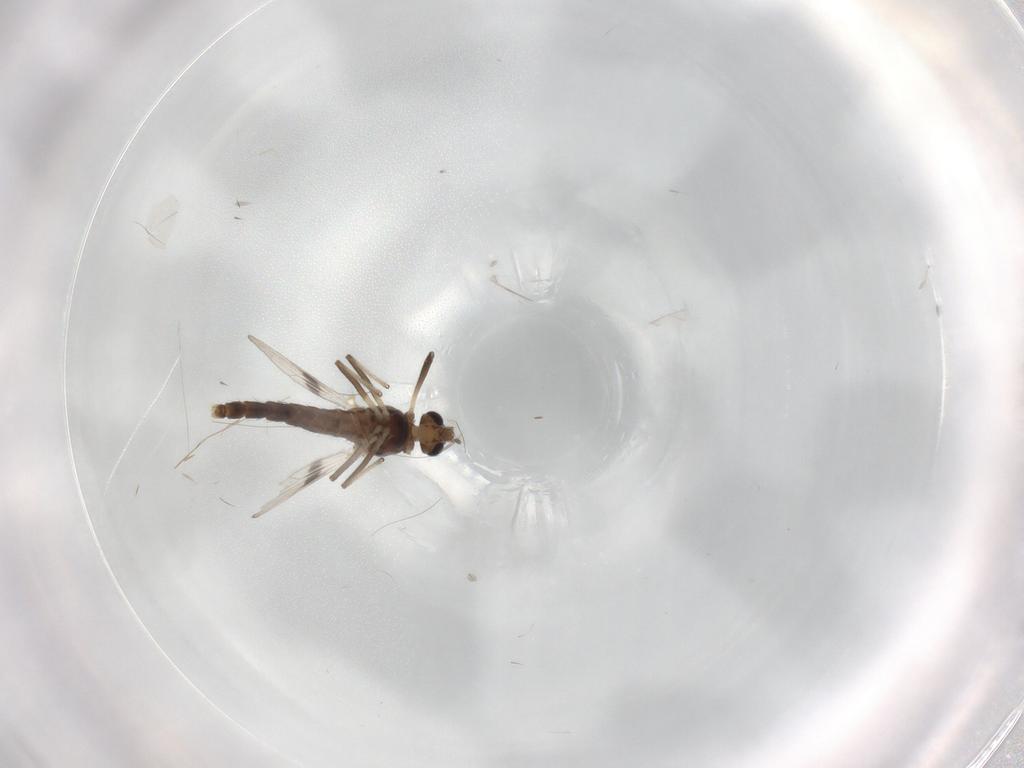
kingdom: Animalia
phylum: Arthropoda
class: Insecta
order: Diptera
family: Chironomidae
